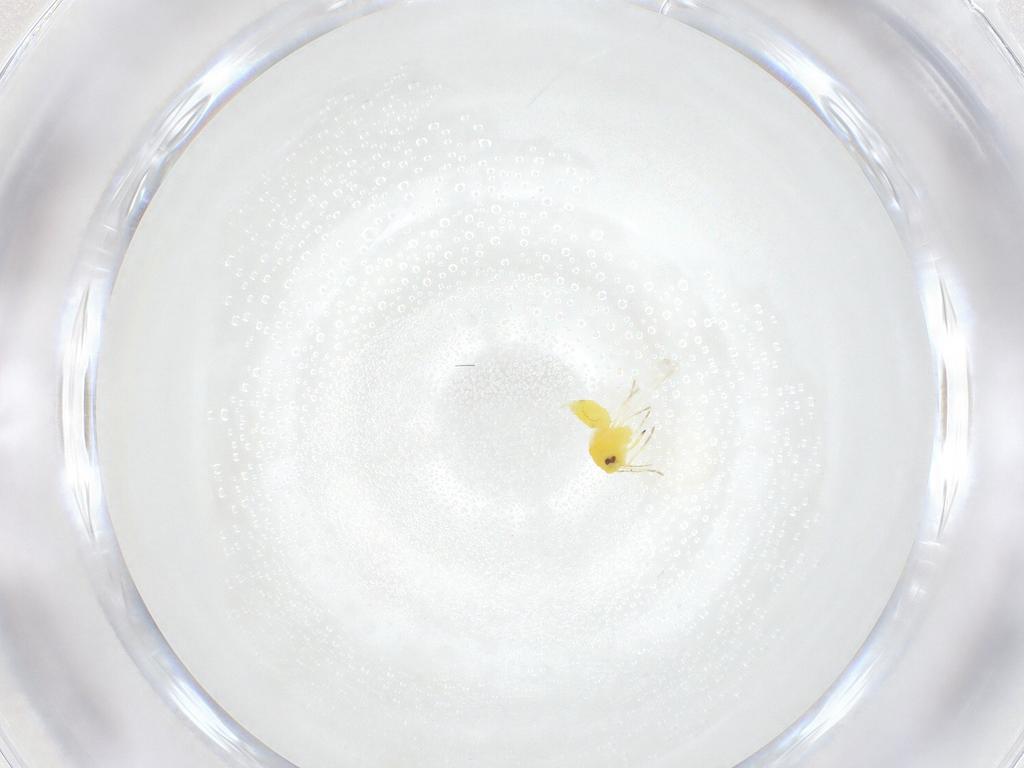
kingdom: Animalia
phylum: Arthropoda
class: Insecta
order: Hemiptera
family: Aleyrodidae
